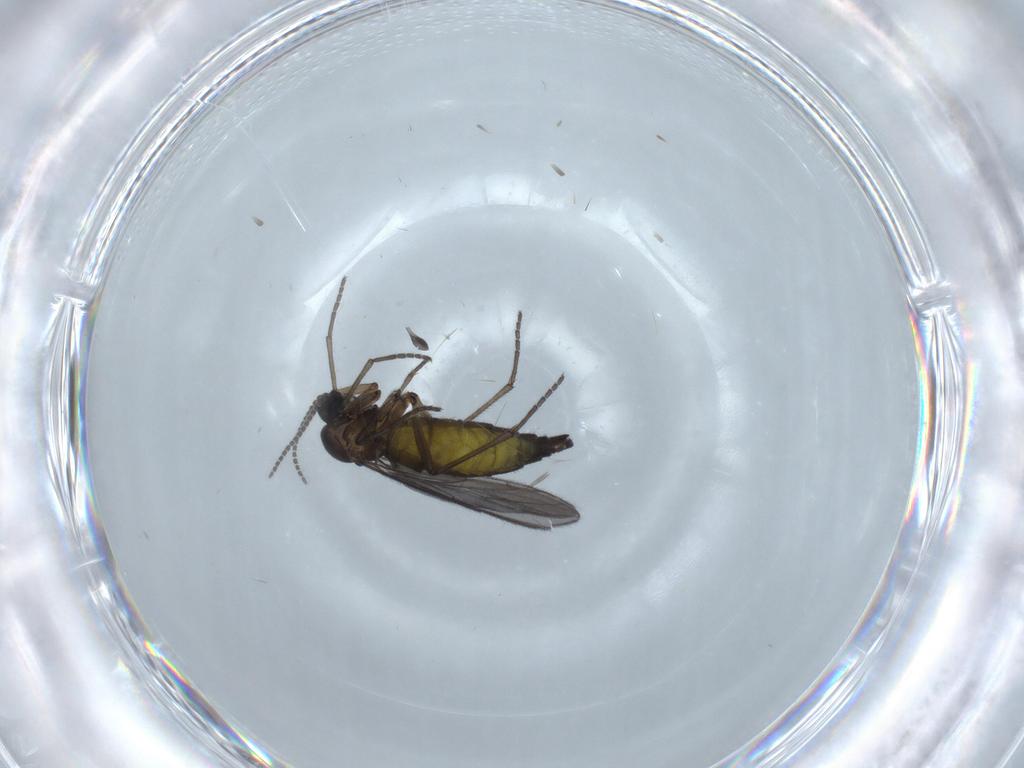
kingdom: Animalia
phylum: Arthropoda
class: Insecta
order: Diptera
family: Sciaridae
